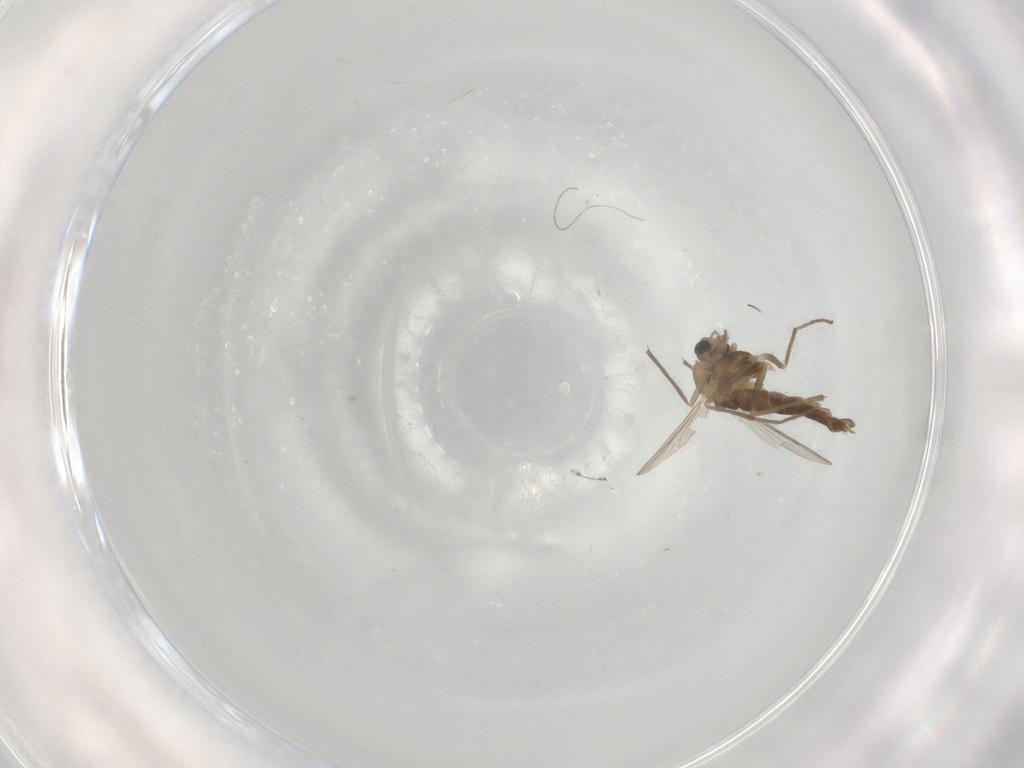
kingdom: Animalia
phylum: Arthropoda
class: Insecta
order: Diptera
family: Chironomidae
